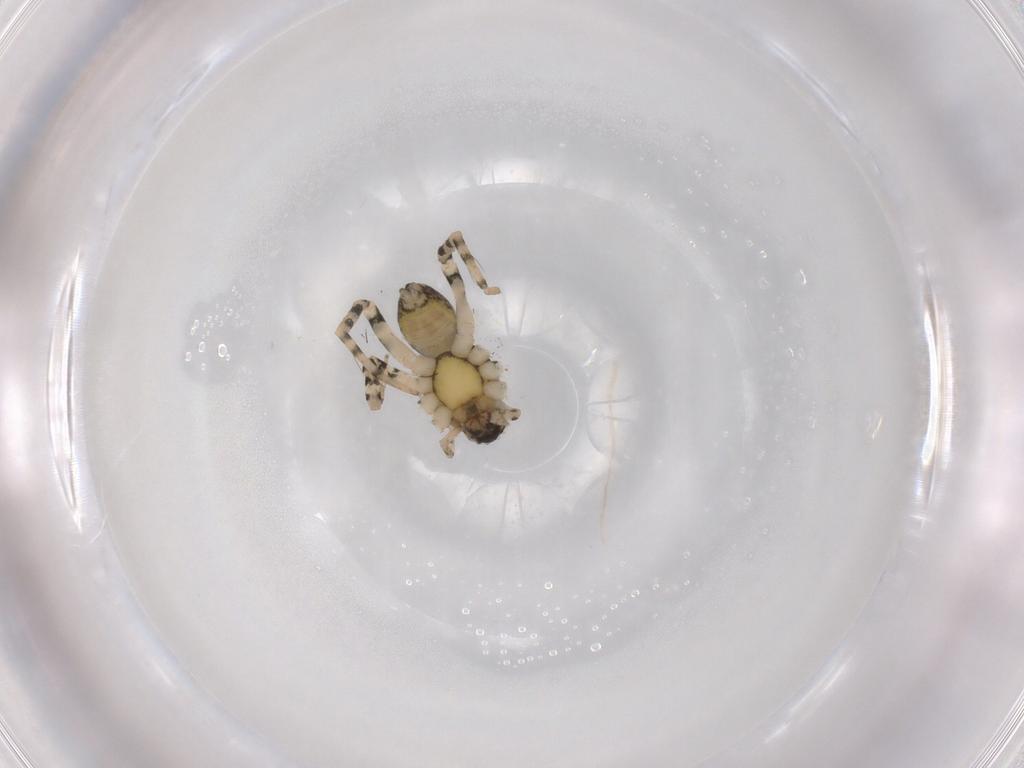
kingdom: Animalia
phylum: Arthropoda
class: Arachnida
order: Araneae
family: Lycosidae
